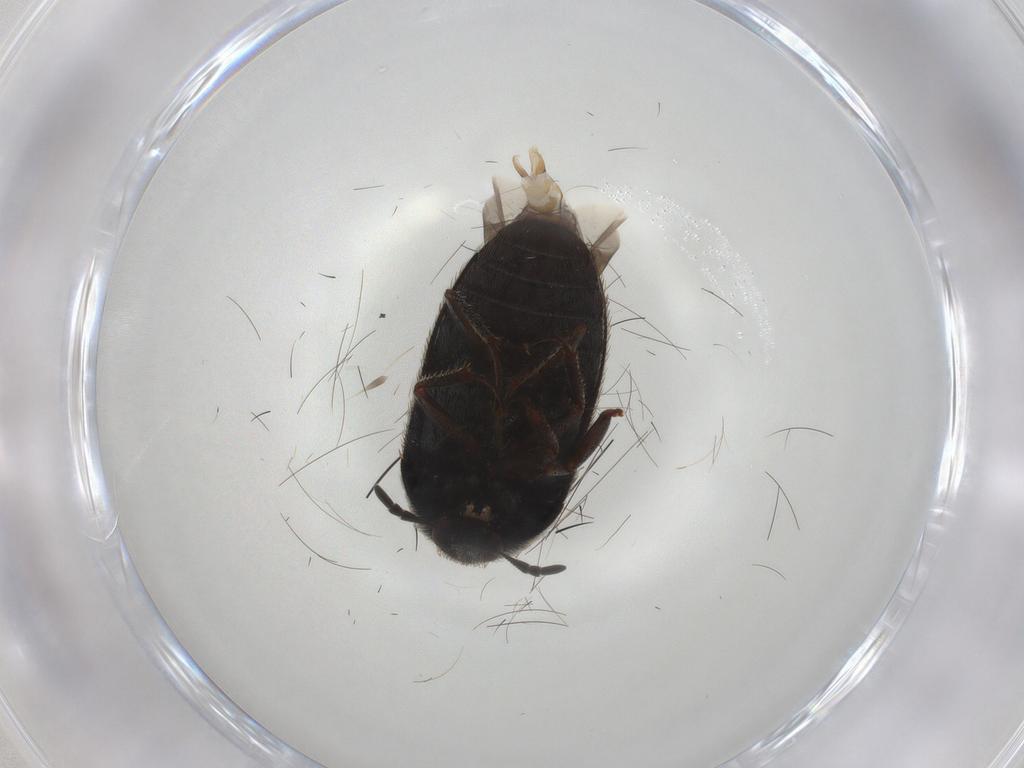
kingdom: Animalia
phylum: Arthropoda
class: Insecta
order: Coleoptera
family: Dermestidae
